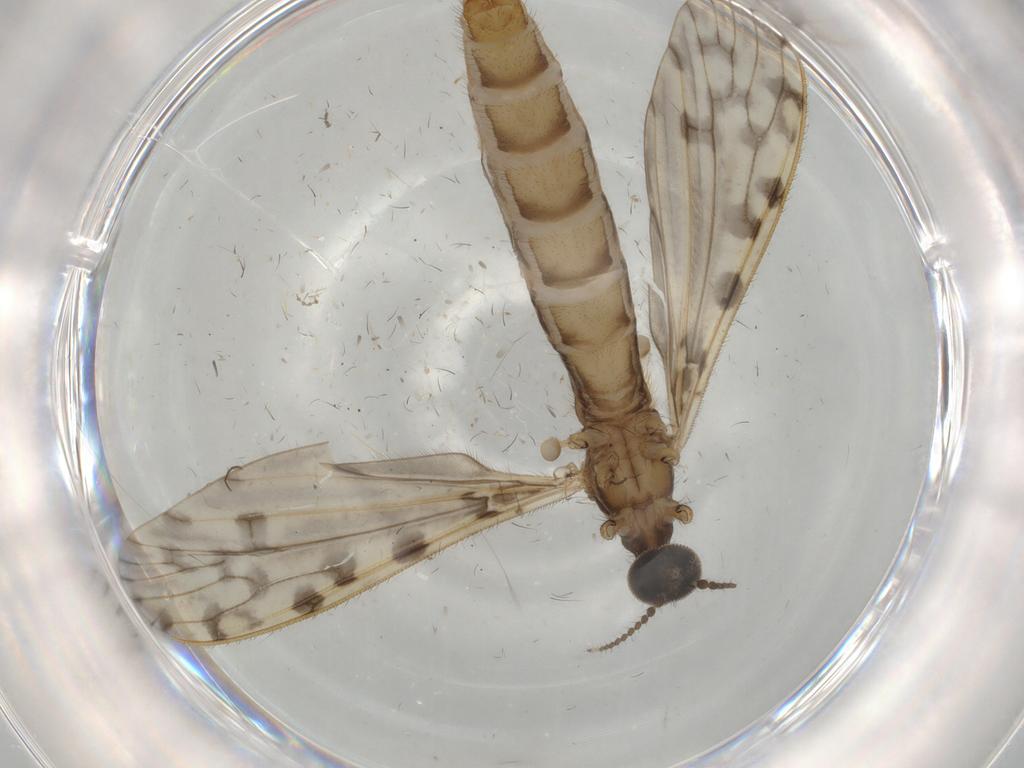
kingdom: Animalia
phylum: Arthropoda
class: Insecta
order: Diptera
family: Limoniidae
